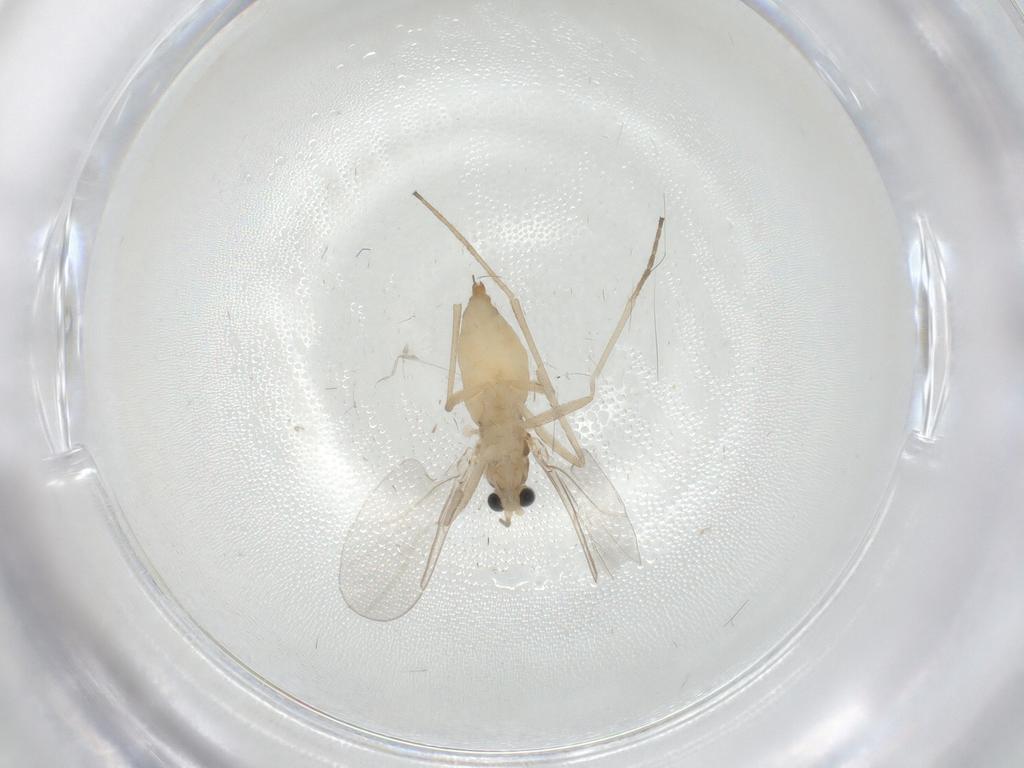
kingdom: Animalia
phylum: Arthropoda
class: Insecta
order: Diptera
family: Cecidomyiidae
